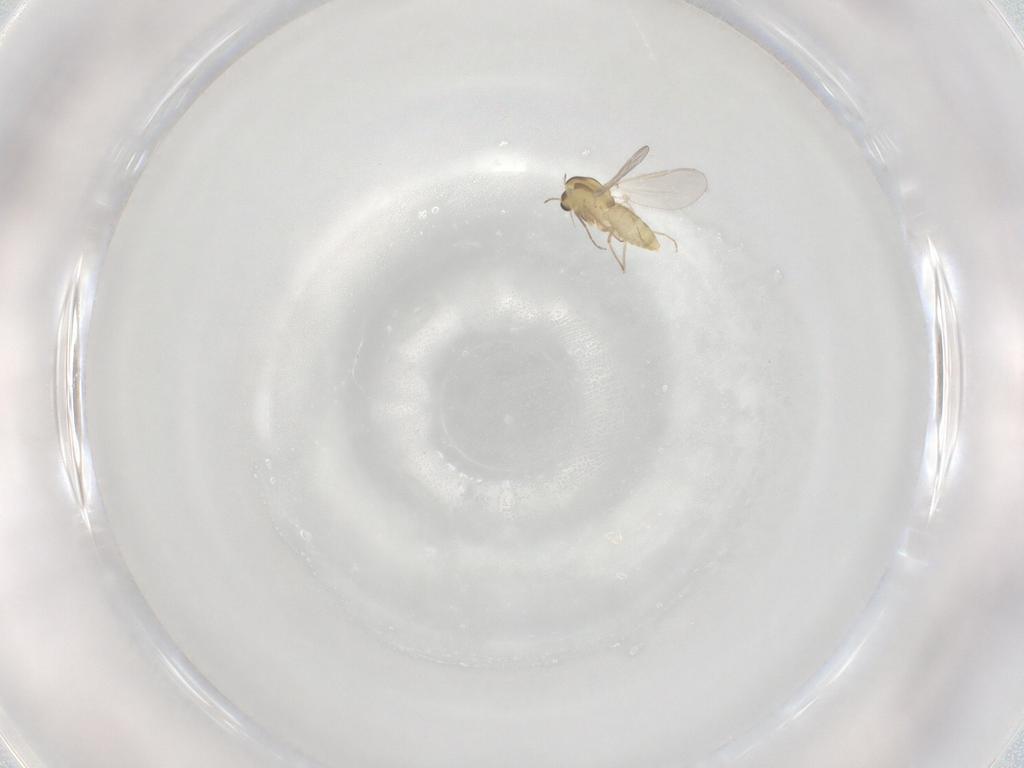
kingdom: Animalia
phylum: Arthropoda
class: Insecta
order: Diptera
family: Chironomidae
